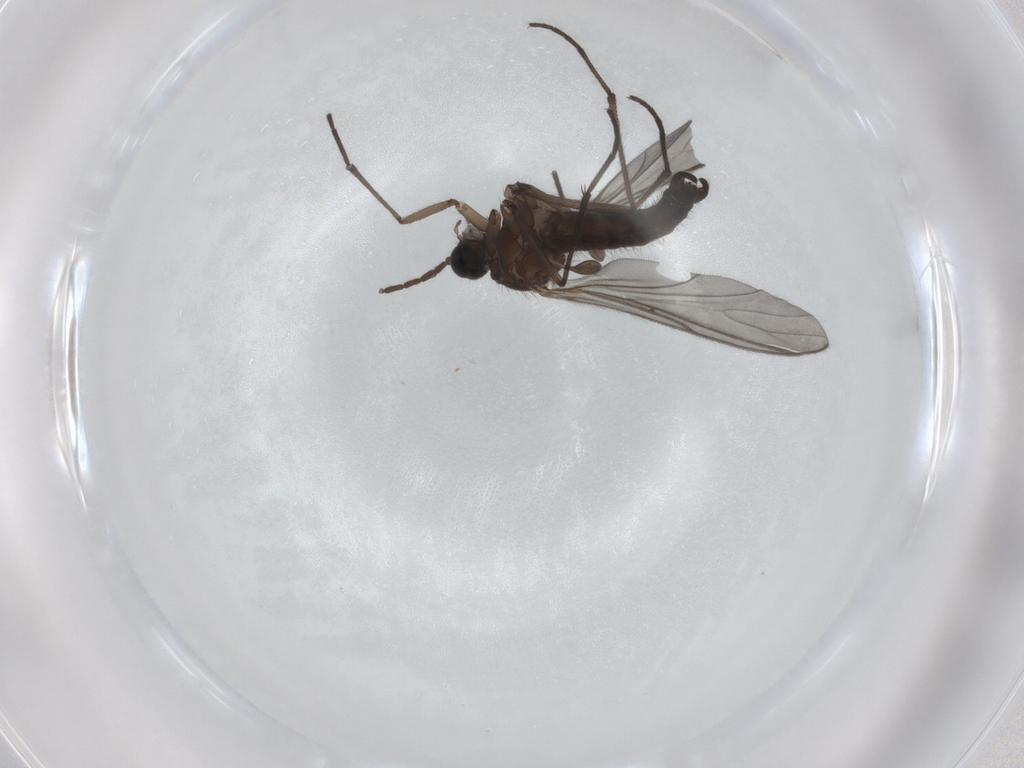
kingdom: Animalia
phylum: Arthropoda
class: Insecta
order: Diptera
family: Sciaridae
